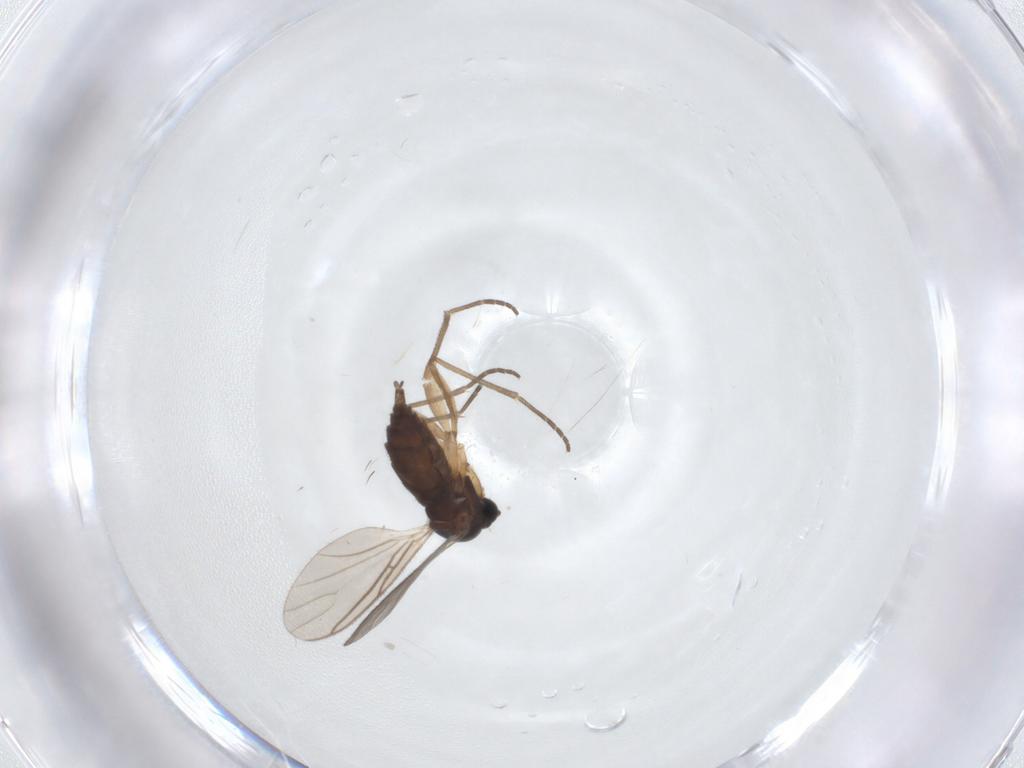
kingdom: Animalia
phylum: Arthropoda
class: Insecta
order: Diptera
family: Sciaridae
